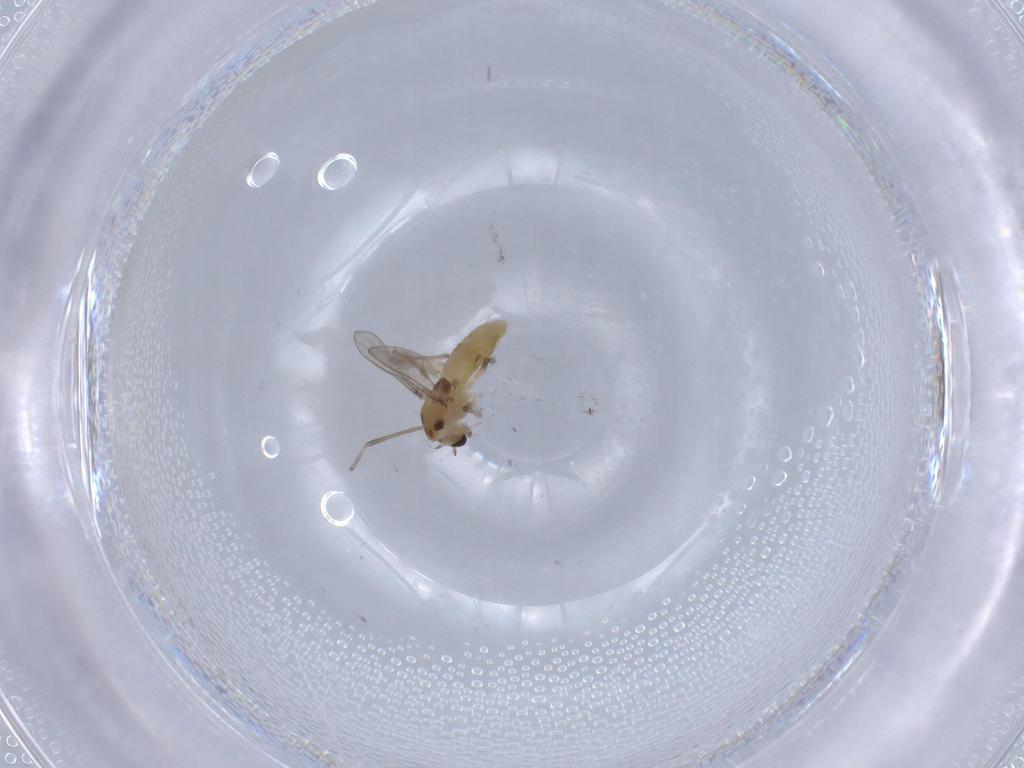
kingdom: Animalia
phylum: Arthropoda
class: Insecta
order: Diptera
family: Chironomidae
